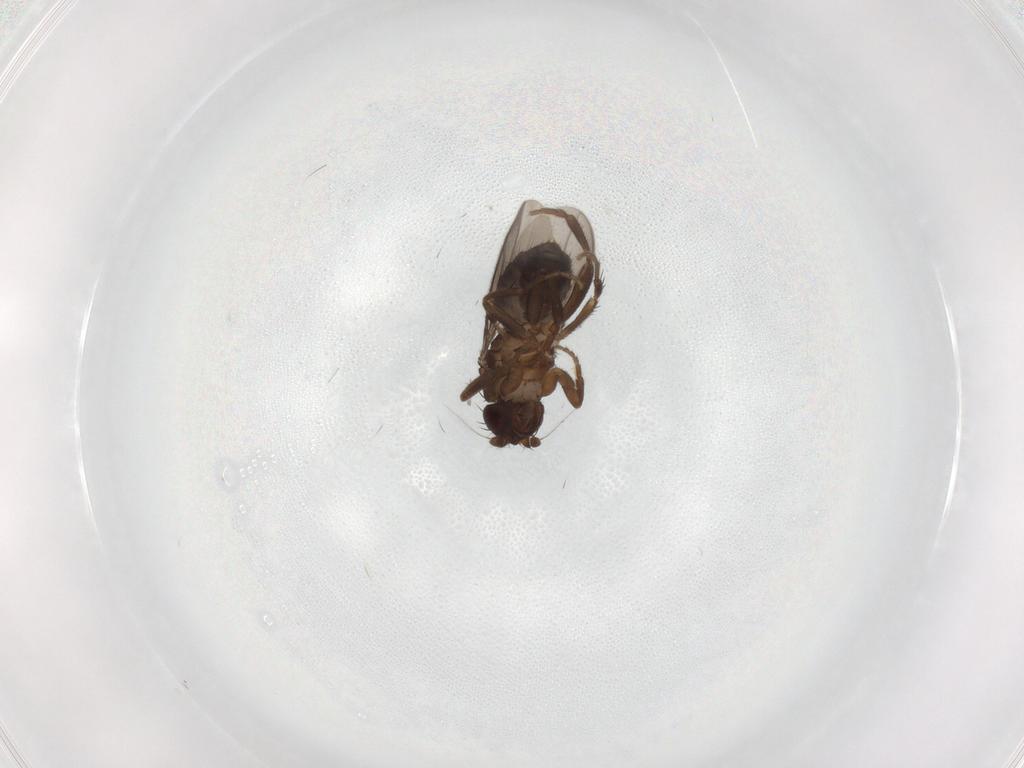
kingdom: Animalia
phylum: Arthropoda
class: Insecta
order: Diptera
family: Sphaeroceridae
